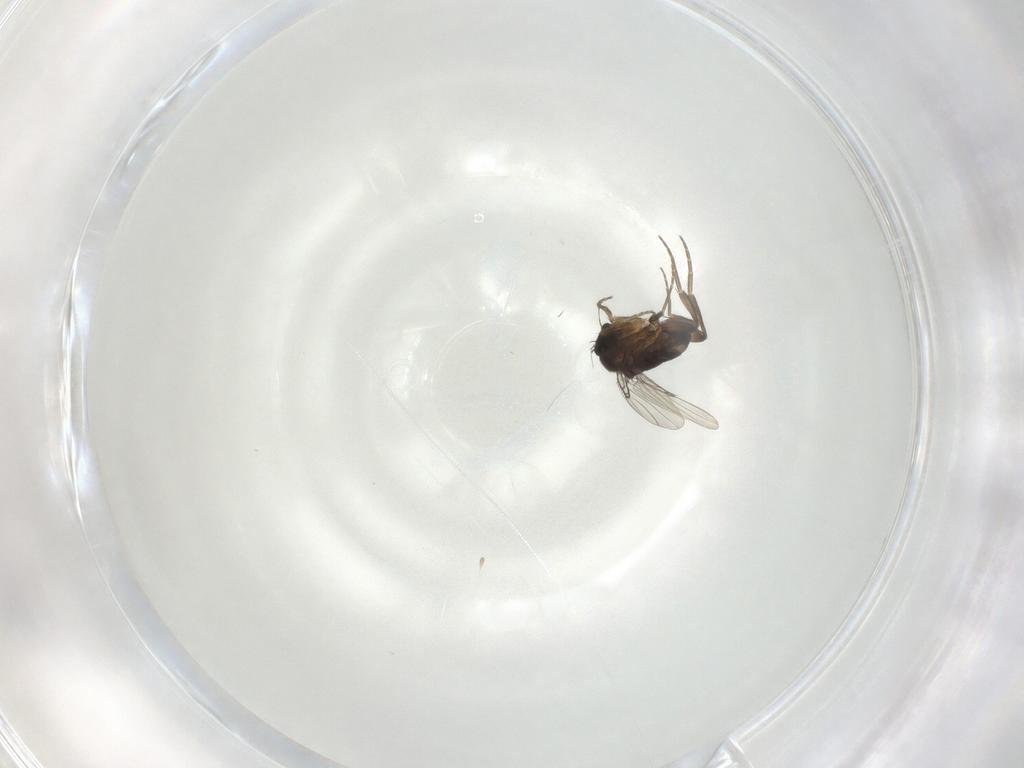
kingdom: Animalia
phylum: Arthropoda
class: Insecta
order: Diptera
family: Phoridae
